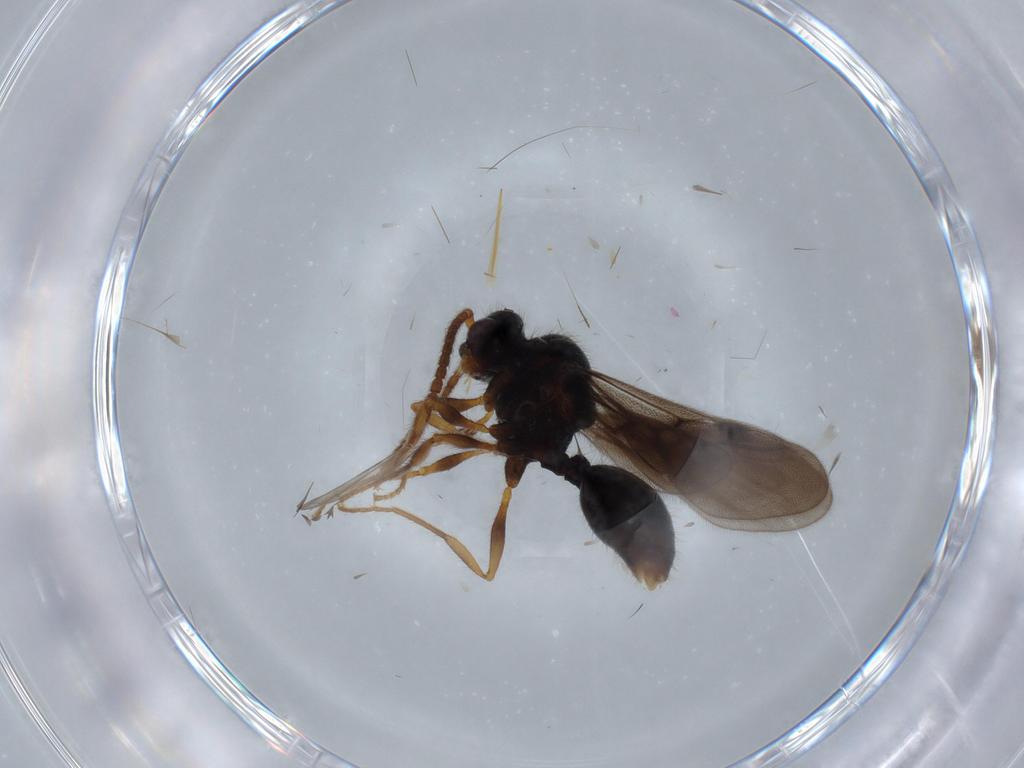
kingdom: Animalia
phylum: Arthropoda
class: Insecta
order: Hymenoptera
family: Formicidae
